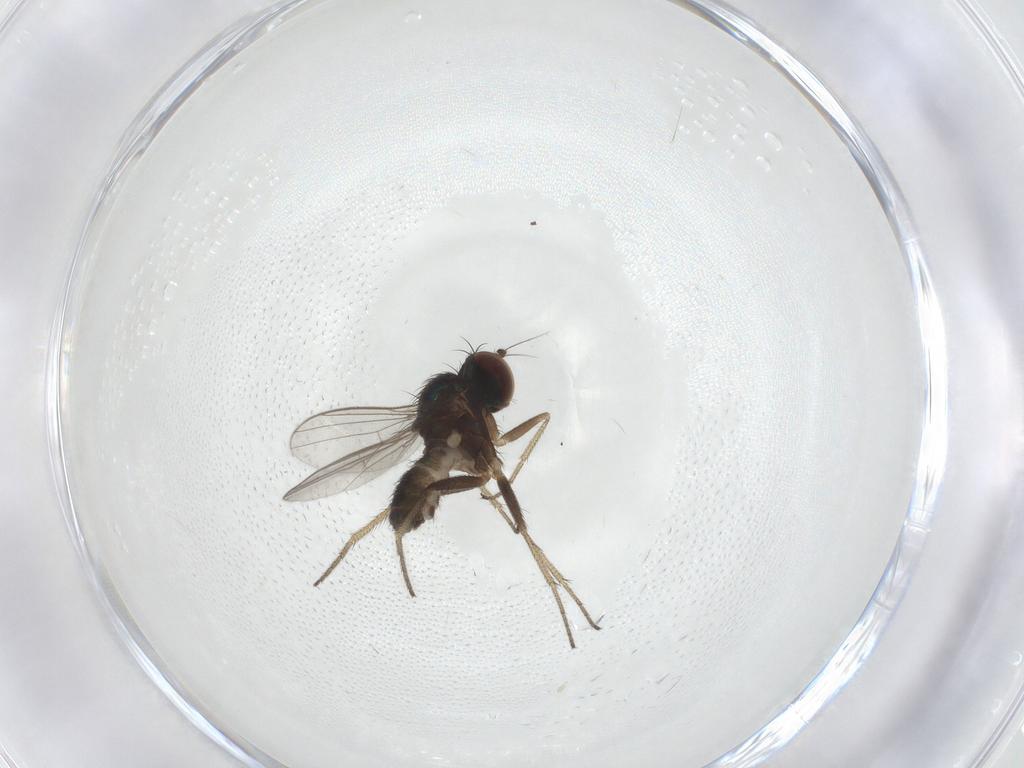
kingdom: Animalia
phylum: Arthropoda
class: Insecta
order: Diptera
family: Dolichopodidae
